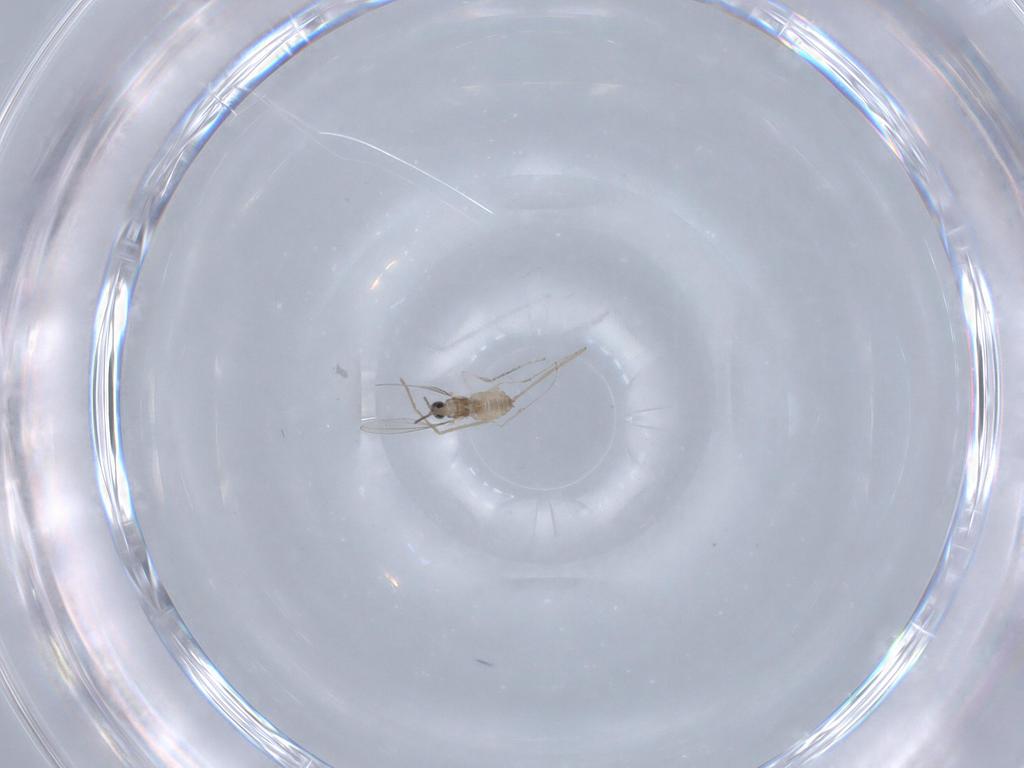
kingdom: Animalia
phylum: Arthropoda
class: Insecta
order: Diptera
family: Cecidomyiidae
